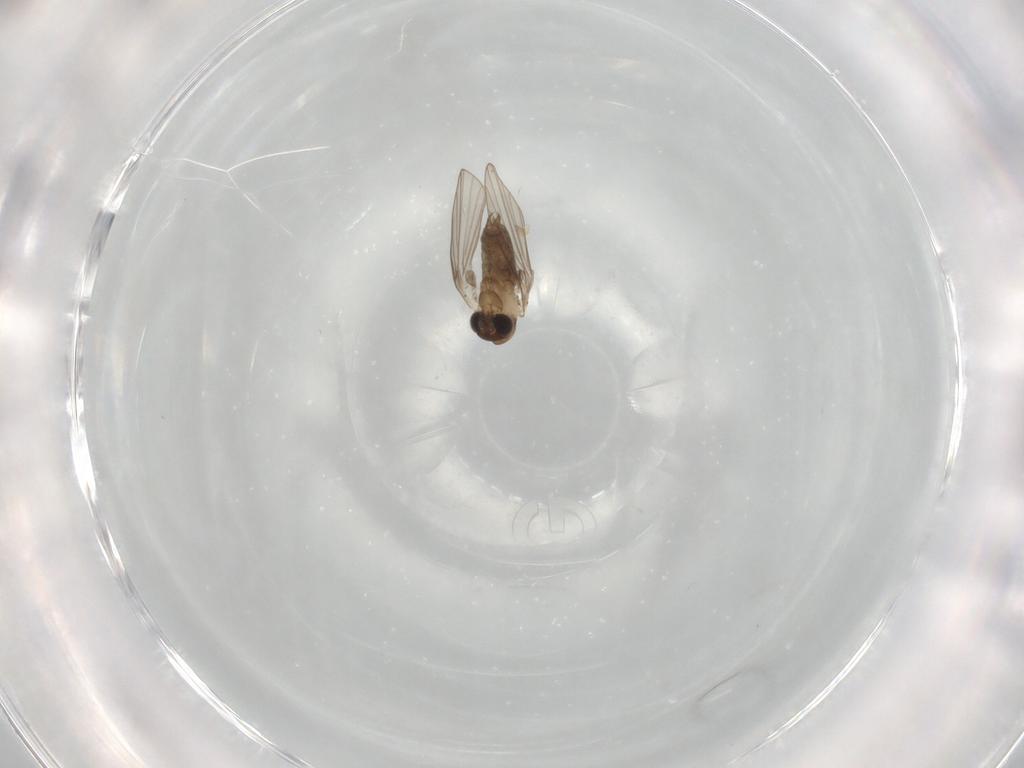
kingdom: Animalia
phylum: Arthropoda
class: Insecta
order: Diptera
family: Psychodidae
